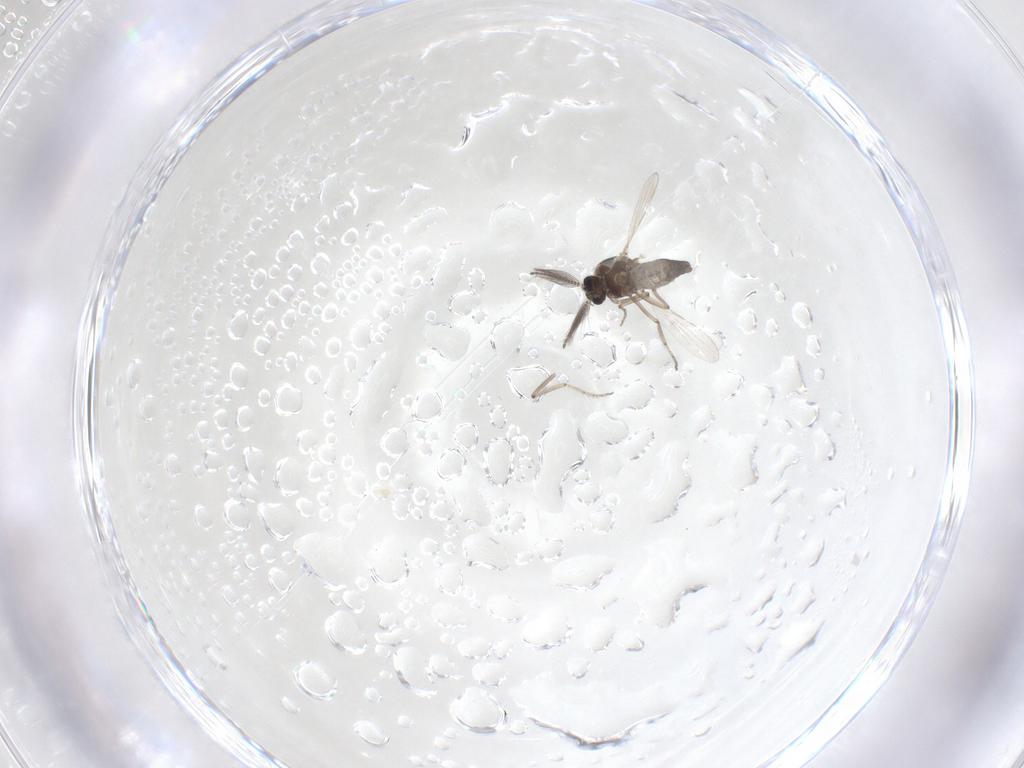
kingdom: Animalia
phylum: Arthropoda
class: Insecta
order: Diptera
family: Ceratopogonidae
